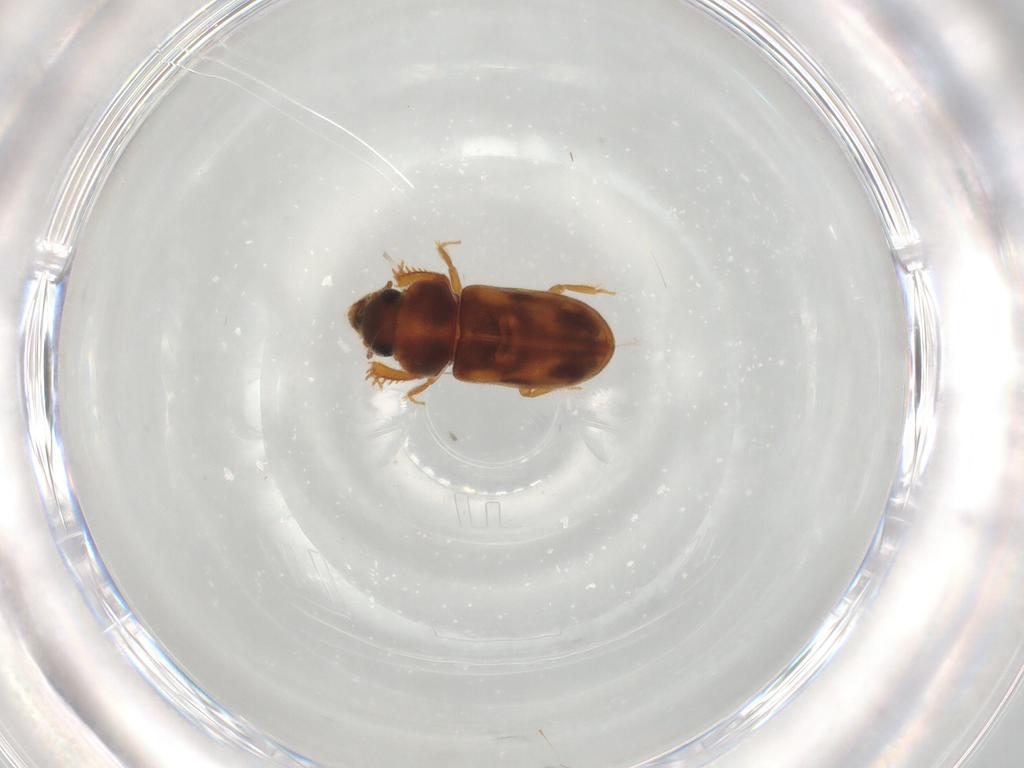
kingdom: Animalia
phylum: Arthropoda
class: Insecta
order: Coleoptera
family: Heteroceridae
